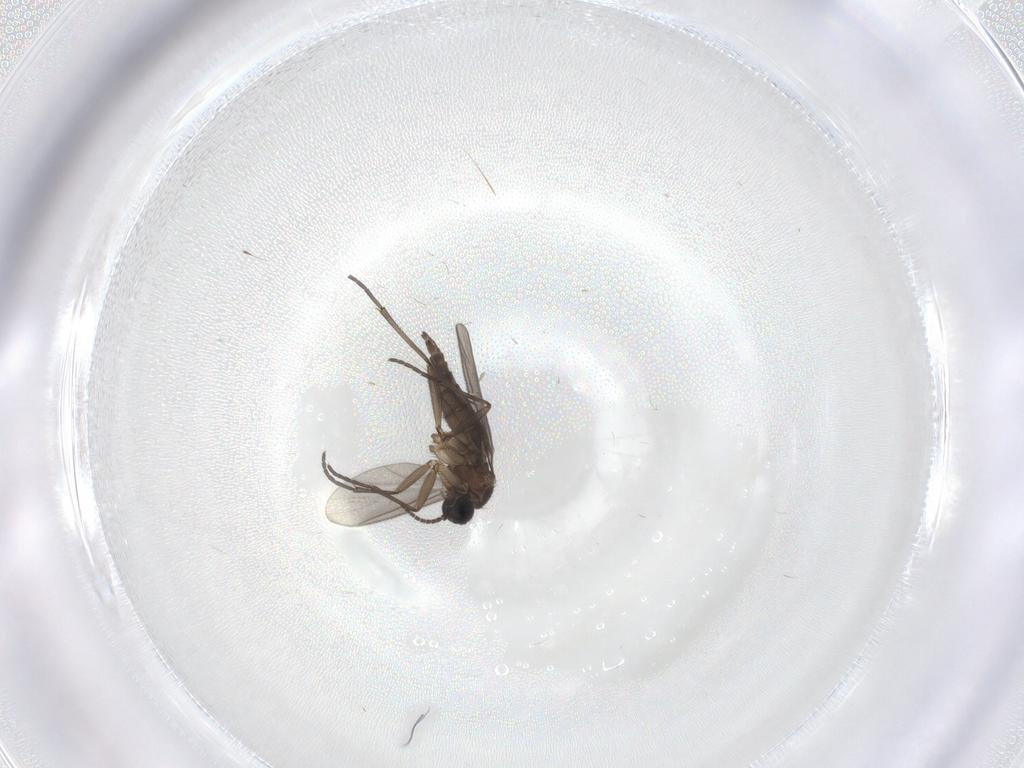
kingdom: Animalia
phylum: Arthropoda
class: Insecta
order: Diptera
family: Sciaridae
